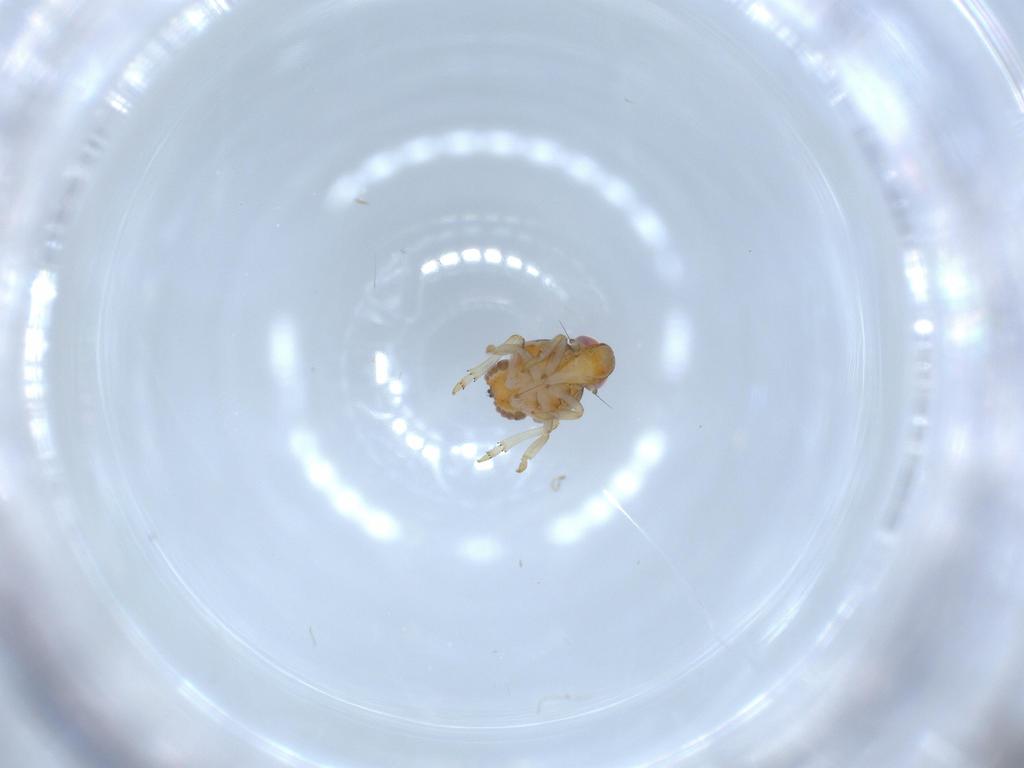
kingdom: Animalia
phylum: Arthropoda
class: Insecta
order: Hemiptera
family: Issidae
